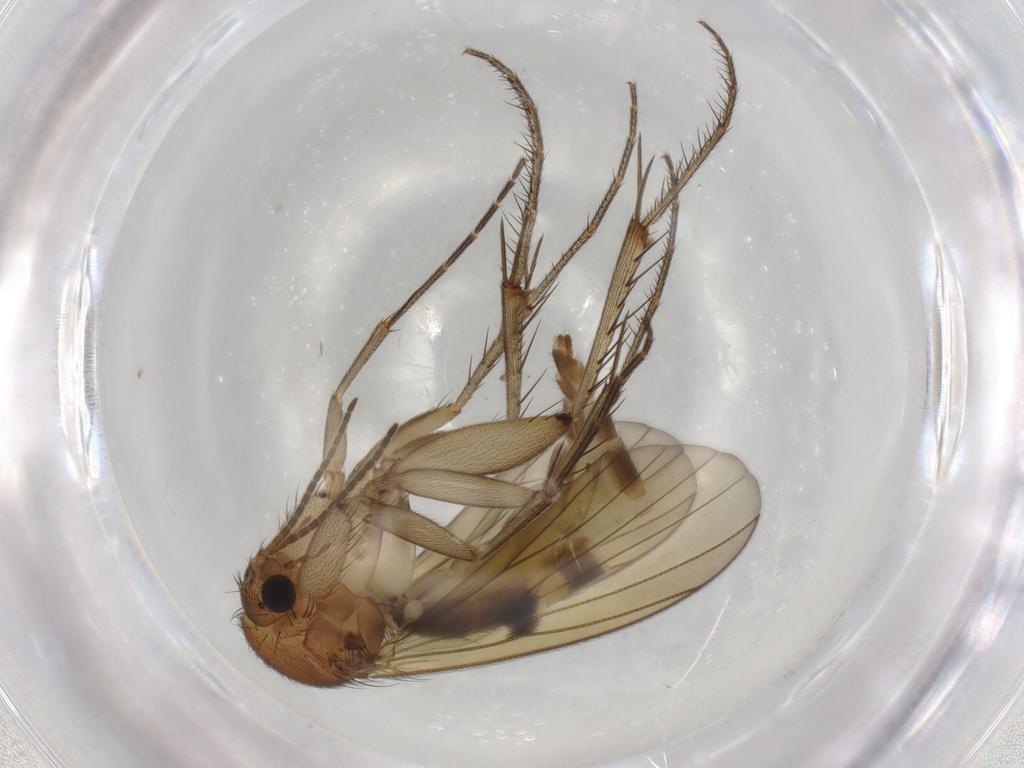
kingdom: Animalia
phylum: Arthropoda
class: Insecta
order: Diptera
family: Mycetophilidae
